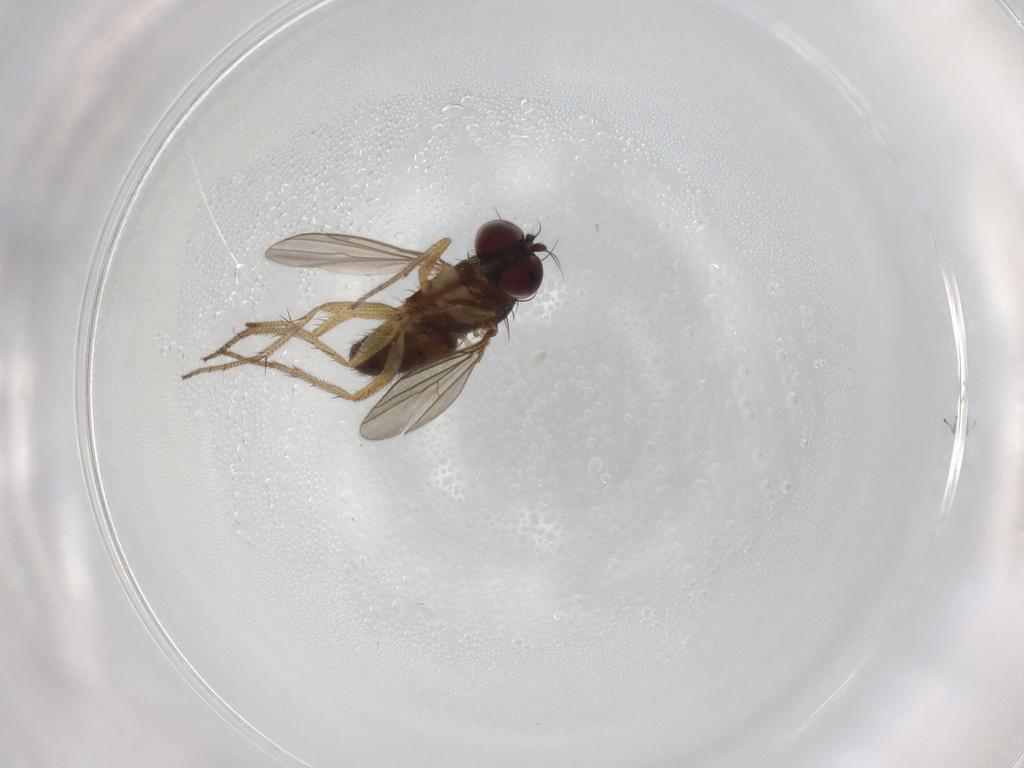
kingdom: Animalia
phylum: Arthropoda
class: Insecta
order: Diptera
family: Dolichopodidae
